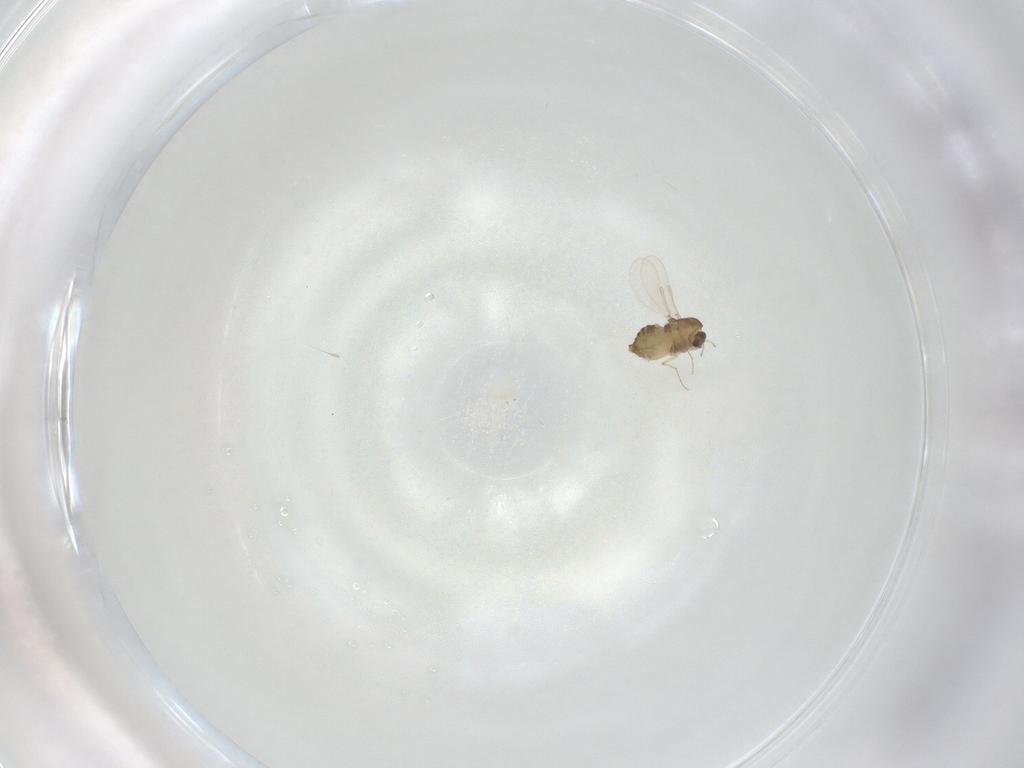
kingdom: Animalia
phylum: Arthropoda
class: Insecta
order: Diptera
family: Chironomidae
